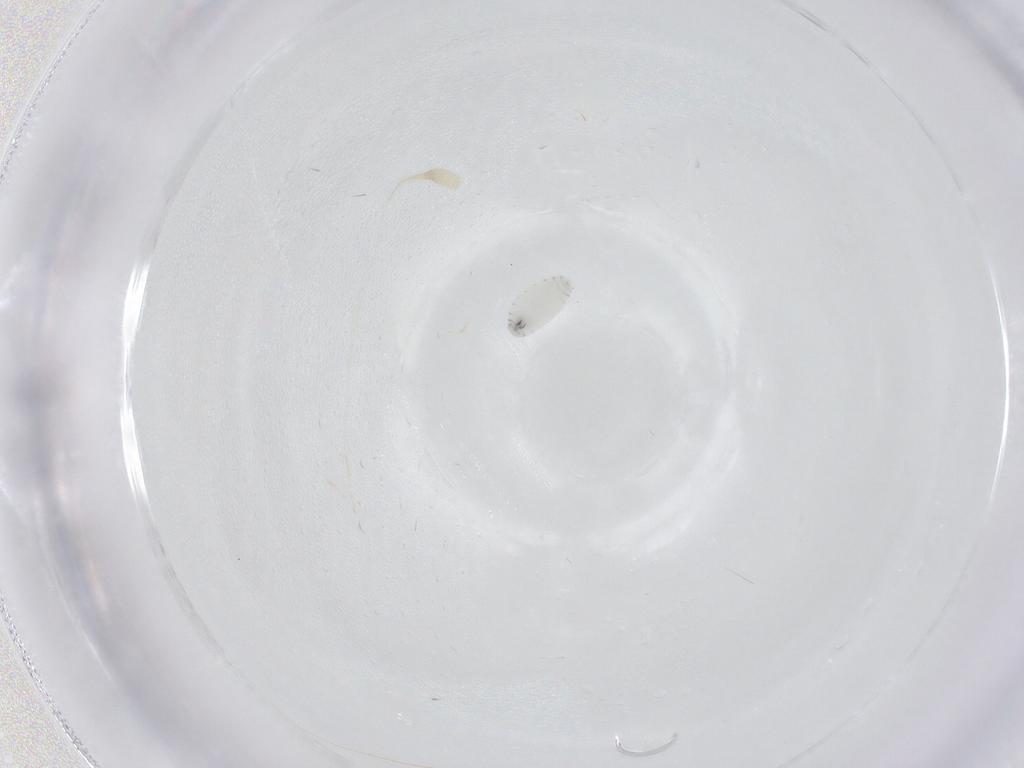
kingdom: Animalia
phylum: Arthropoda
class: Insecta
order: Diptera
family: Tachinidae
